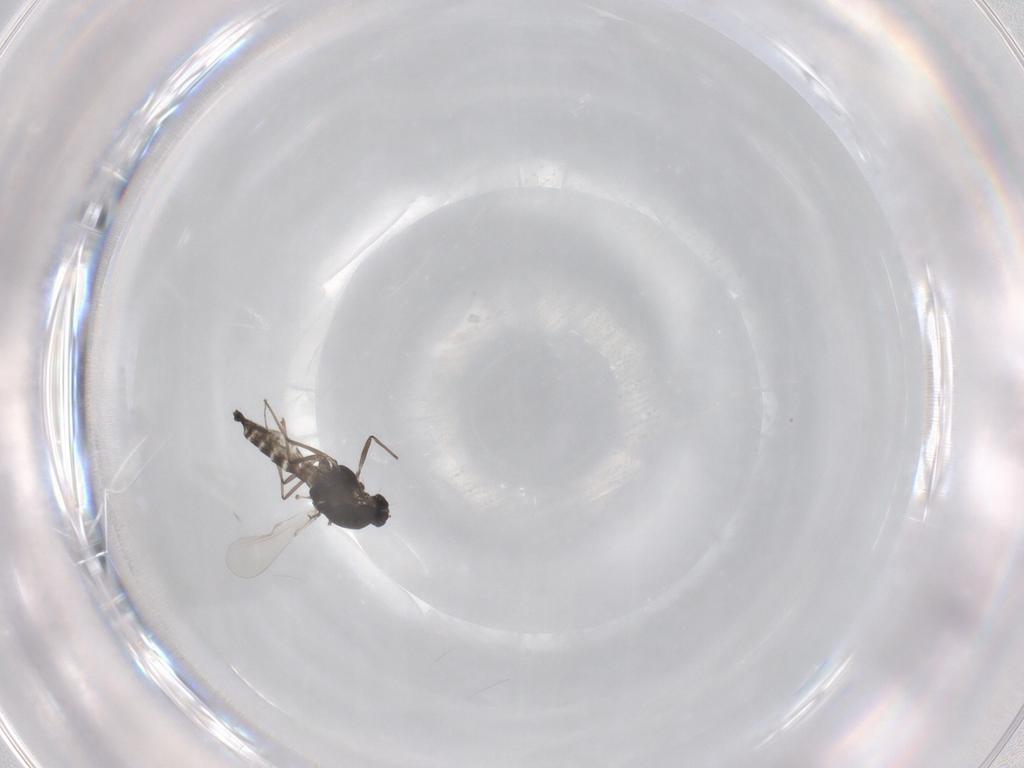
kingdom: Animalia
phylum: Arthropoda
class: Insecta
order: Diptera
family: Chironomidae
